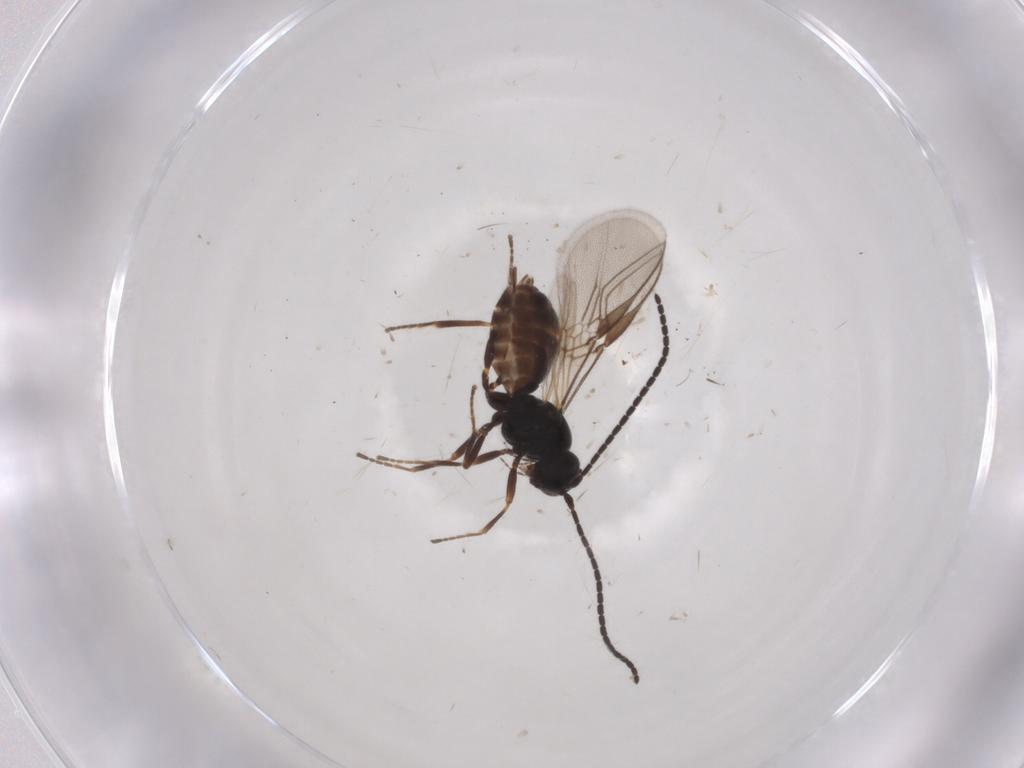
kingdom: Animalia
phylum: Arthropoda
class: Insecta
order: Hymenoptera
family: Braconidae
